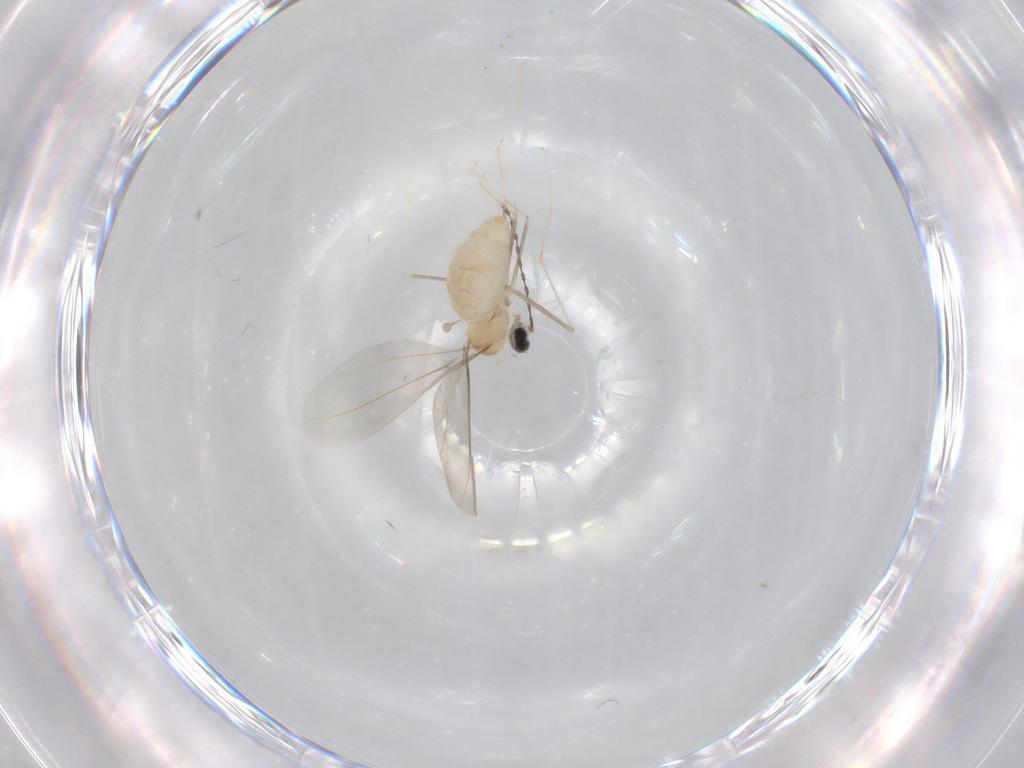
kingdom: Animalia
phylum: Arthropoda
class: Insecta
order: Diptera
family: Cecidomyiidae
